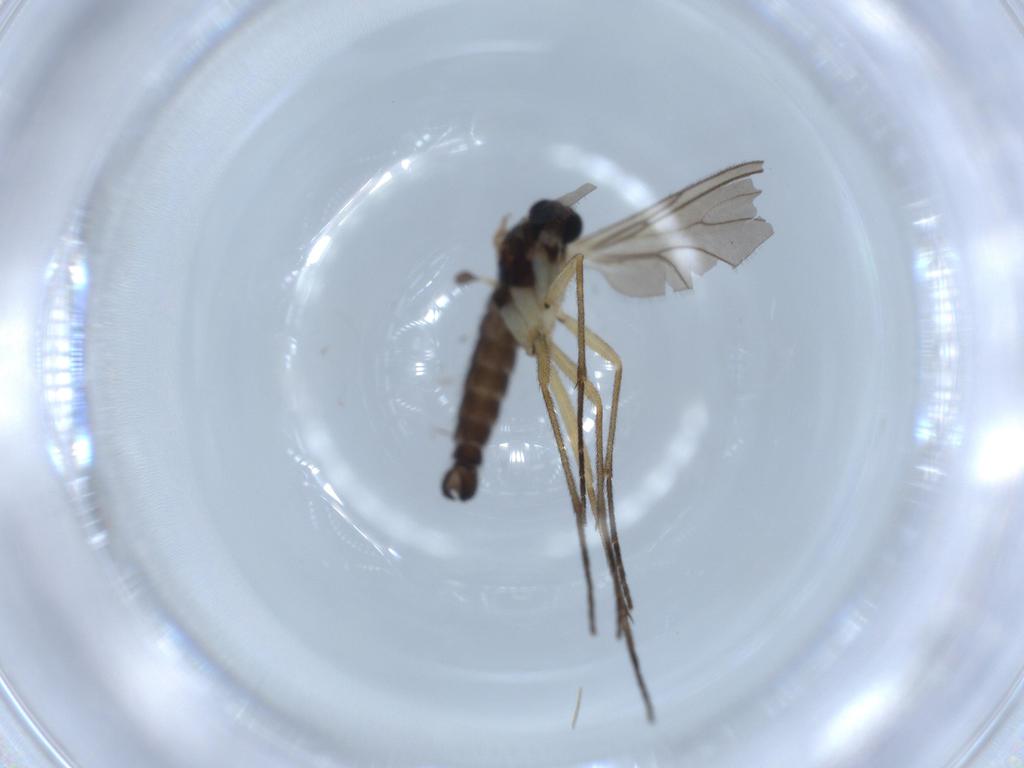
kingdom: Animalia
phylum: Arthropoda
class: Insecta
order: Diptera
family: Sciaridae
